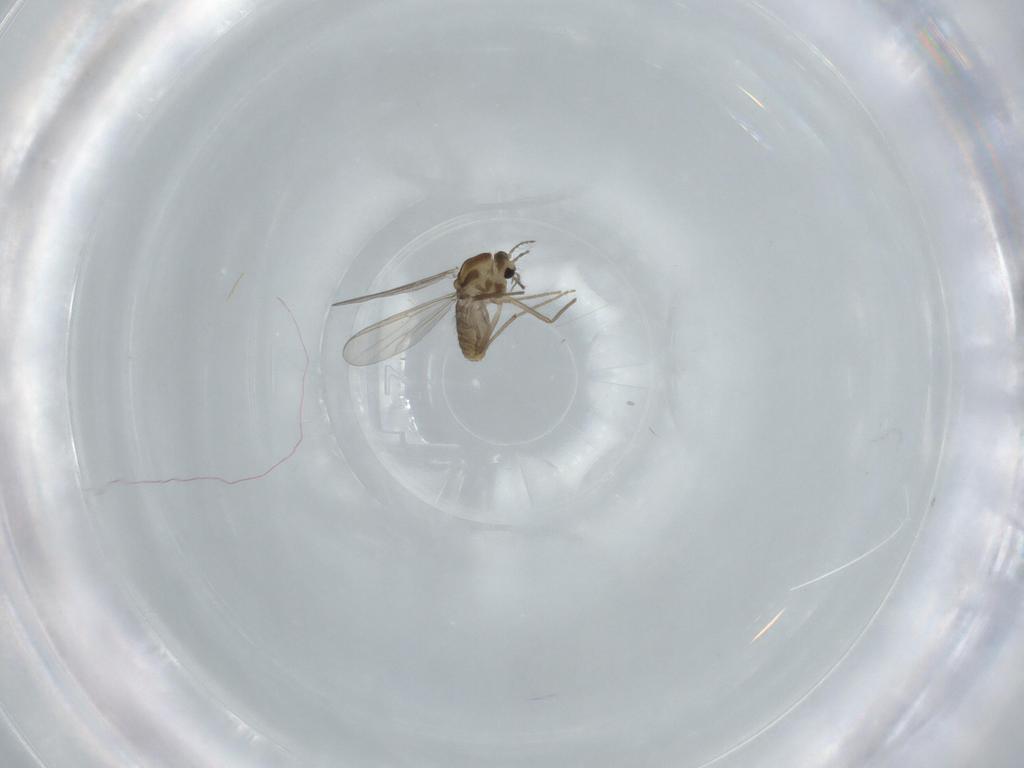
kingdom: Animalia
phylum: Arthropoda
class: Insecta
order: Diptera
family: Chironomidae
